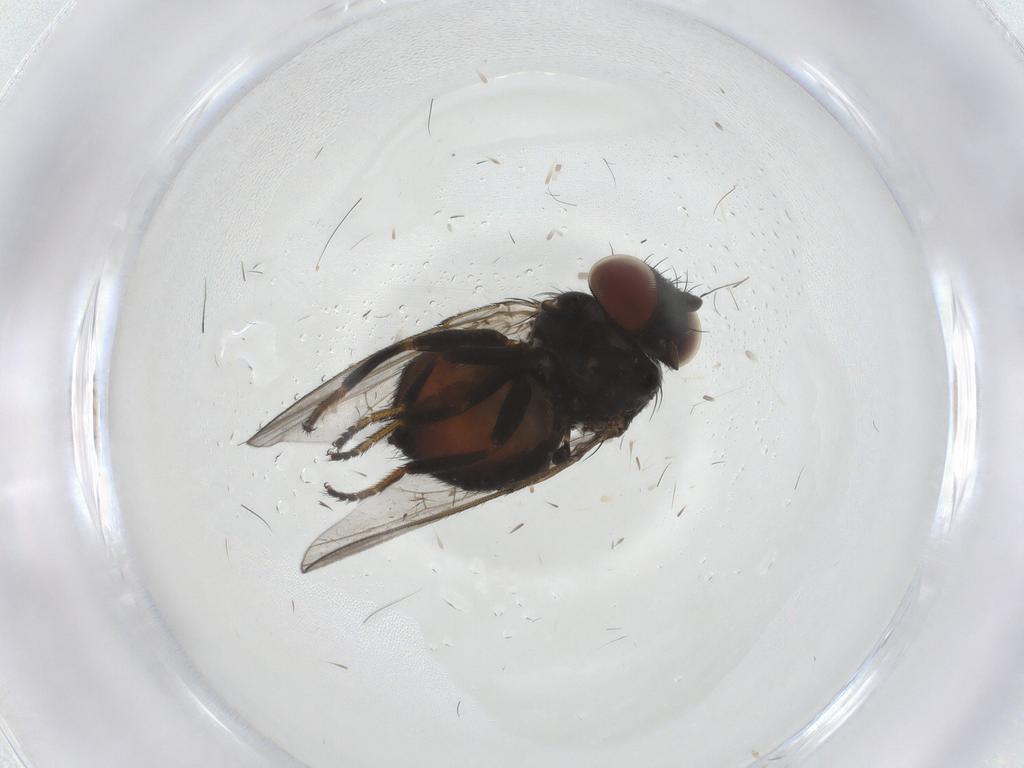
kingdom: Animalia
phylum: Arthropoda
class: Insecta
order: Diptera
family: Milichiidae
